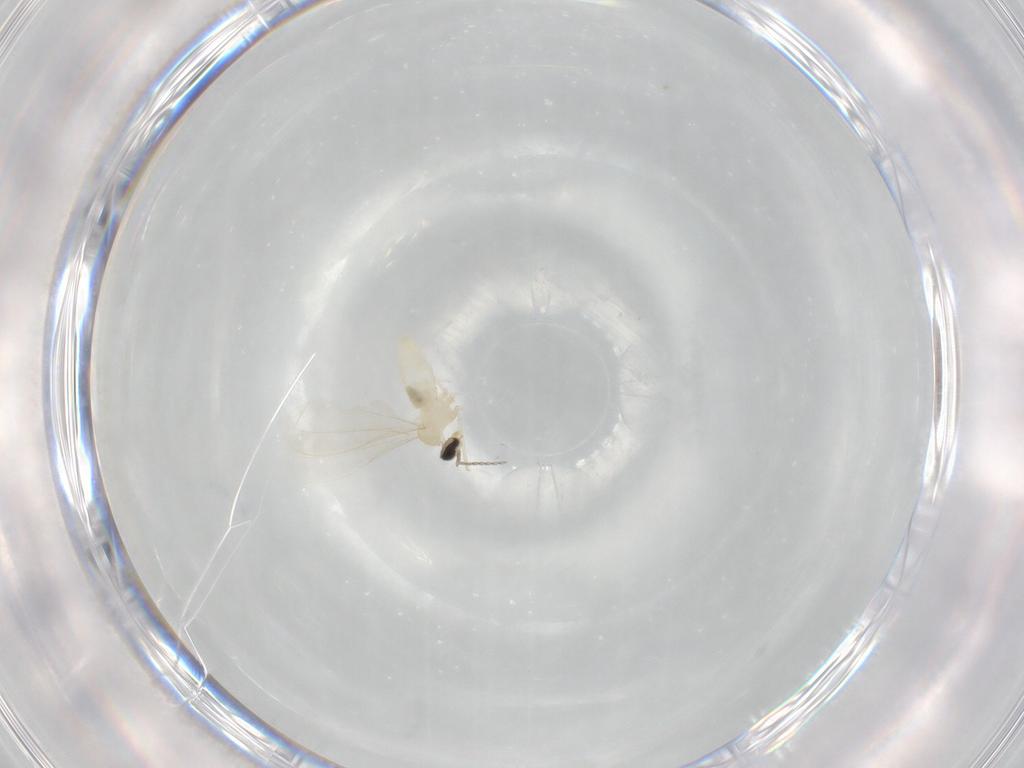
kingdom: Animalia
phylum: Arthropoda
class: Insecta
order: Diptera
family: Cecidomyiidae
